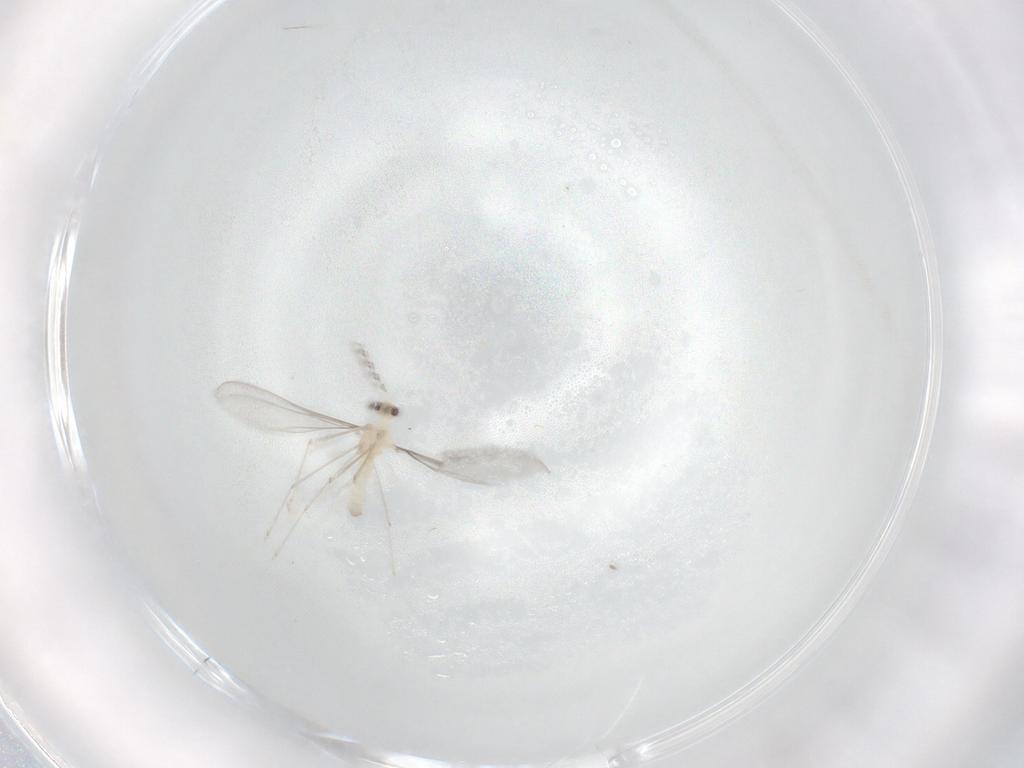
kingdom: Animalia
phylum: Arthropoda
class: Insecta
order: Diptera
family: Cecidomyiidae
